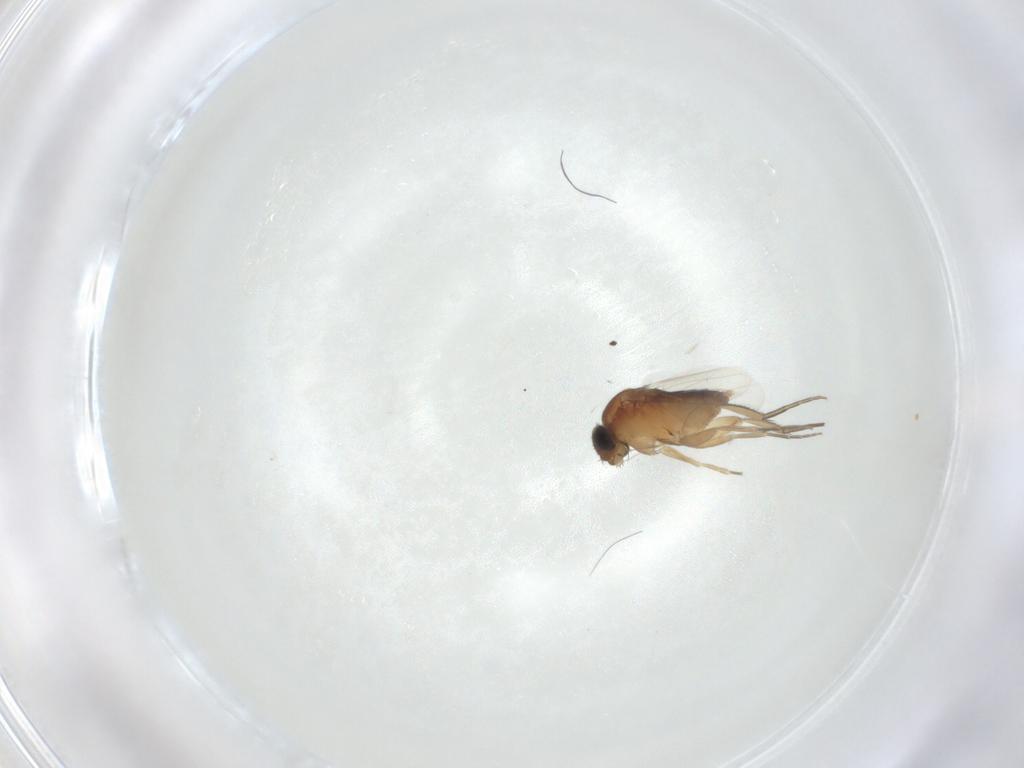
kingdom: Animalia
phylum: Arthropoda
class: Insecta
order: Diptera
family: Phoridae
